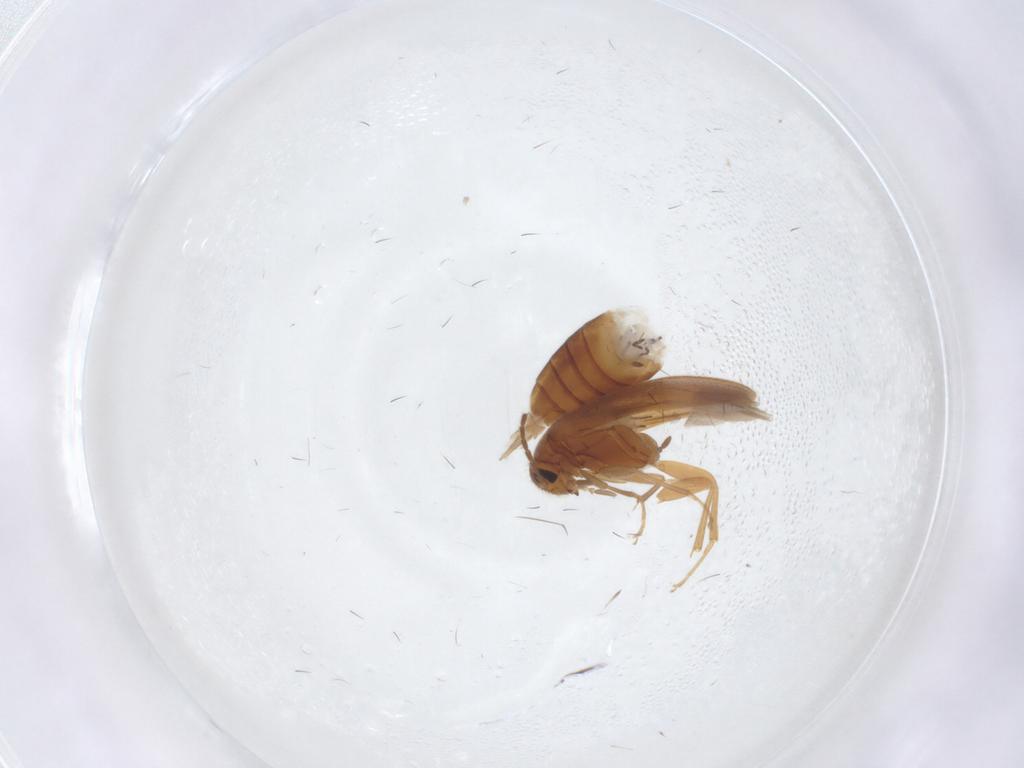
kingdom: Animalia
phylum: Arthropoda
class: Insecta
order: Coleoptera
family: Scraptiidae
